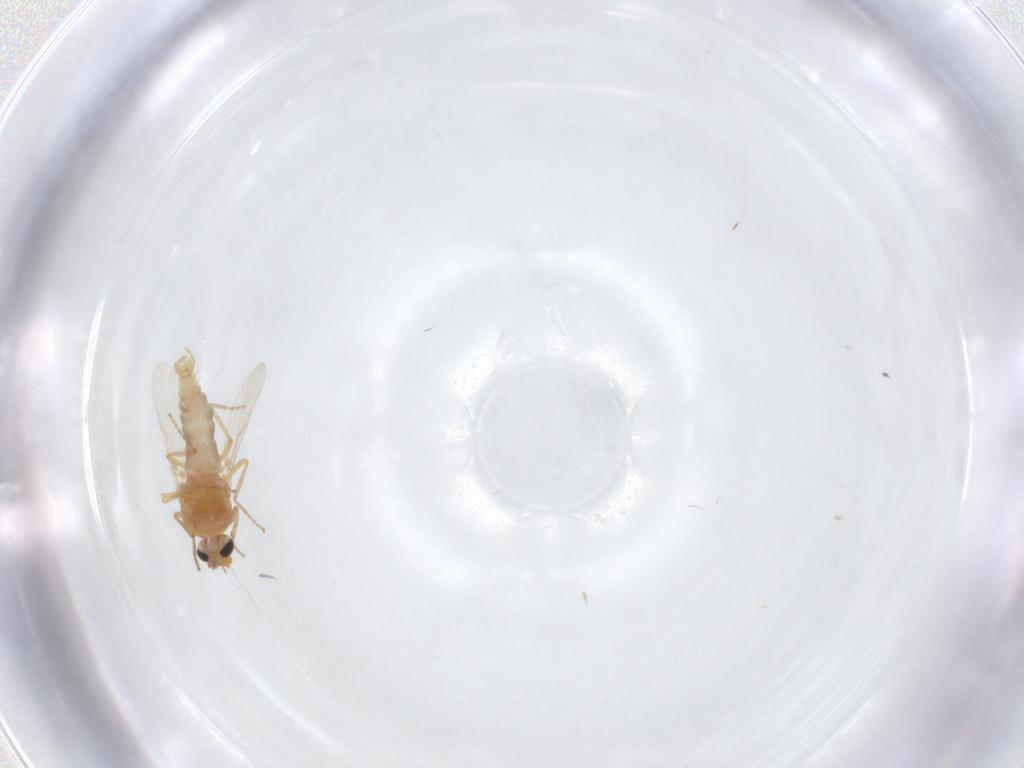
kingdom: Animalia
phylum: Arthropoda
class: Insecta
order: Diptera
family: Ceratopogonidae
